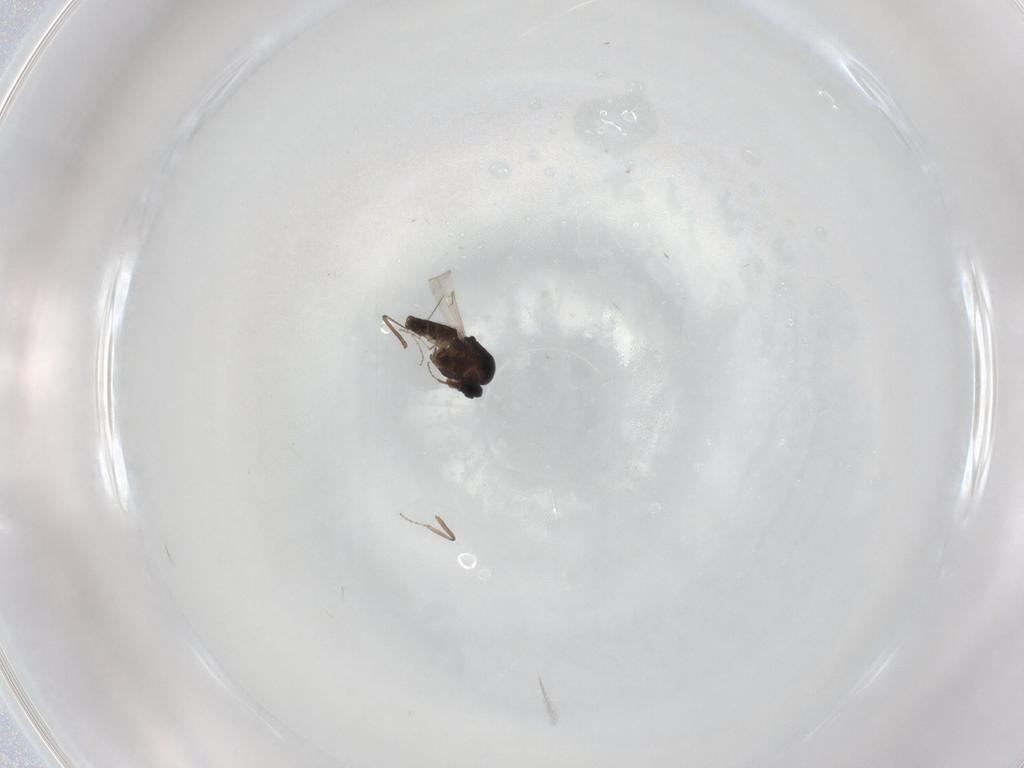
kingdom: Animalia
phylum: Arthropoda
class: Insecta
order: Diptera
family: Ceratopogonidae
